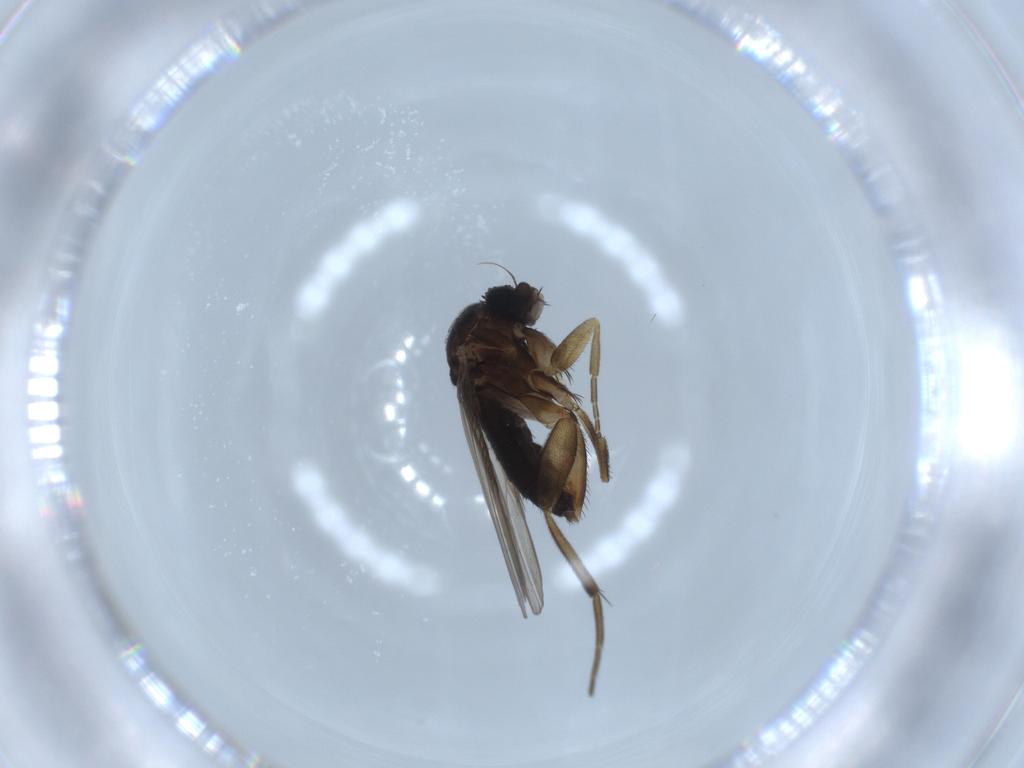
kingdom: Animalia
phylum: Arthropoda
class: Insecta
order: Diptera
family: Phoridae
